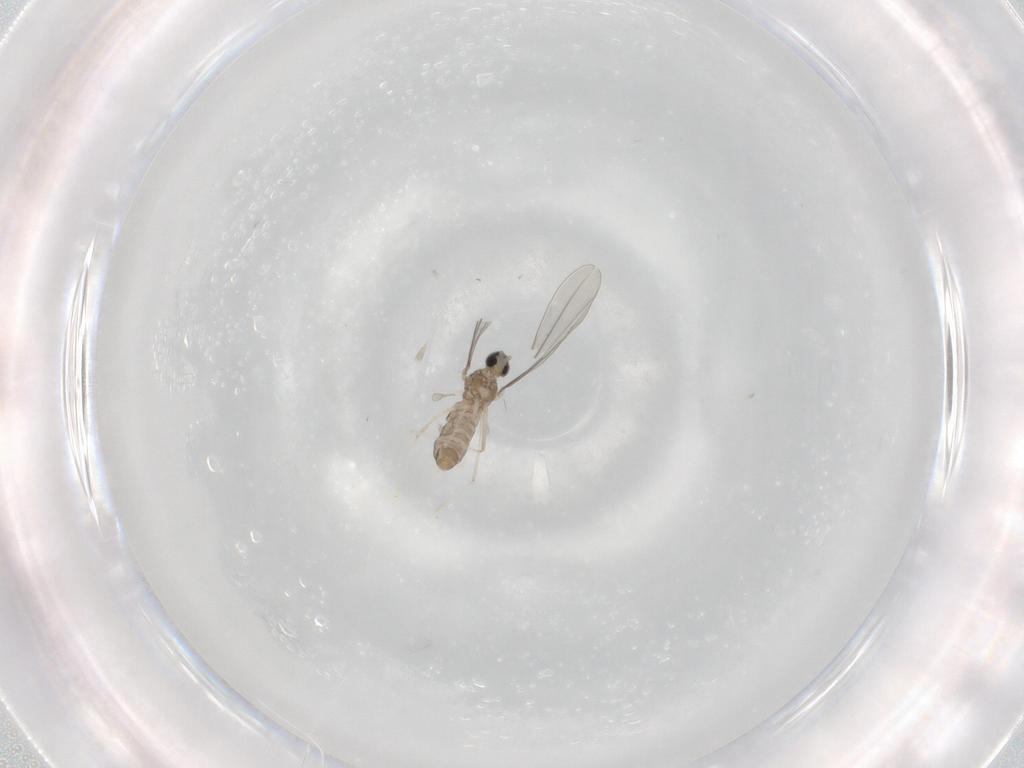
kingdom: Animalia
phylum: Arthropoda
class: Insecta
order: Diptera
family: Cecidomyiidae
